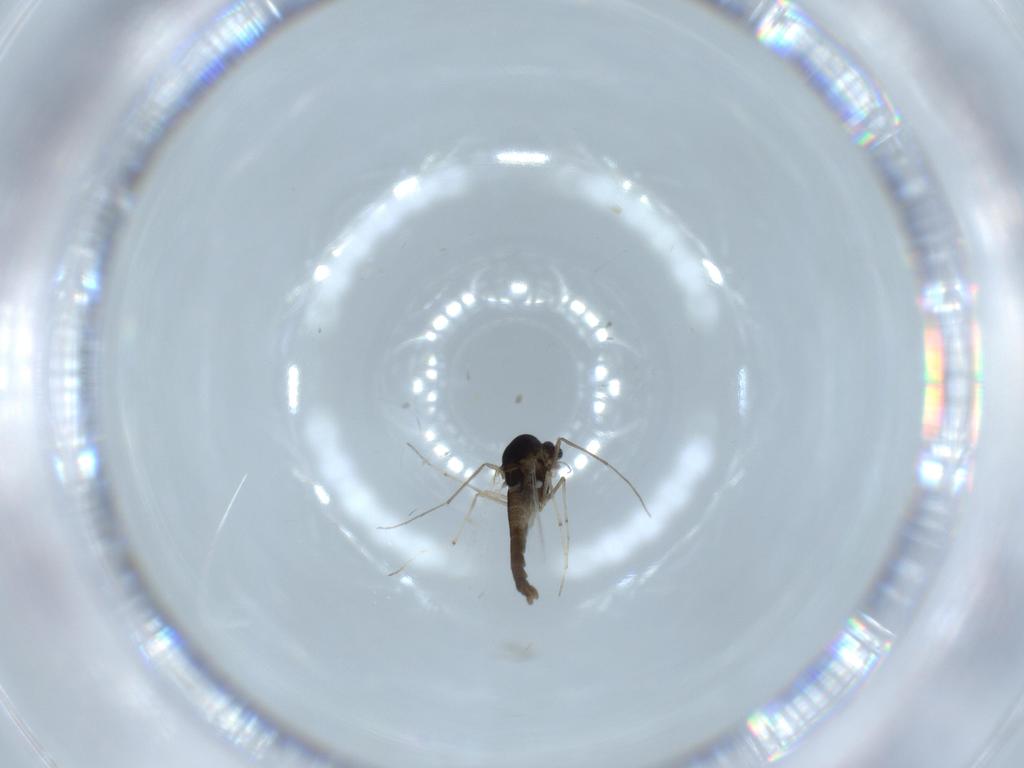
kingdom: Animalia
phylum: Arthropoda
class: Insecta
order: Diptera
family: Chironomidae
